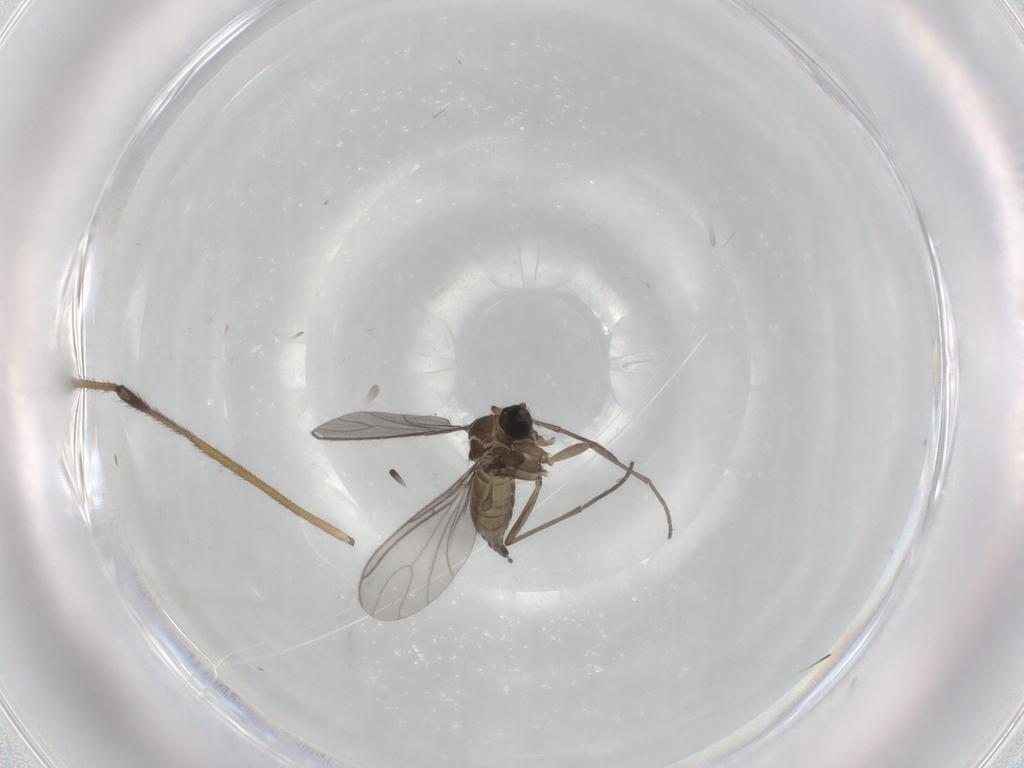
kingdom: Animalia
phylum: Arthropoda
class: Insecta
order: Diptera
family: Sciaridae
